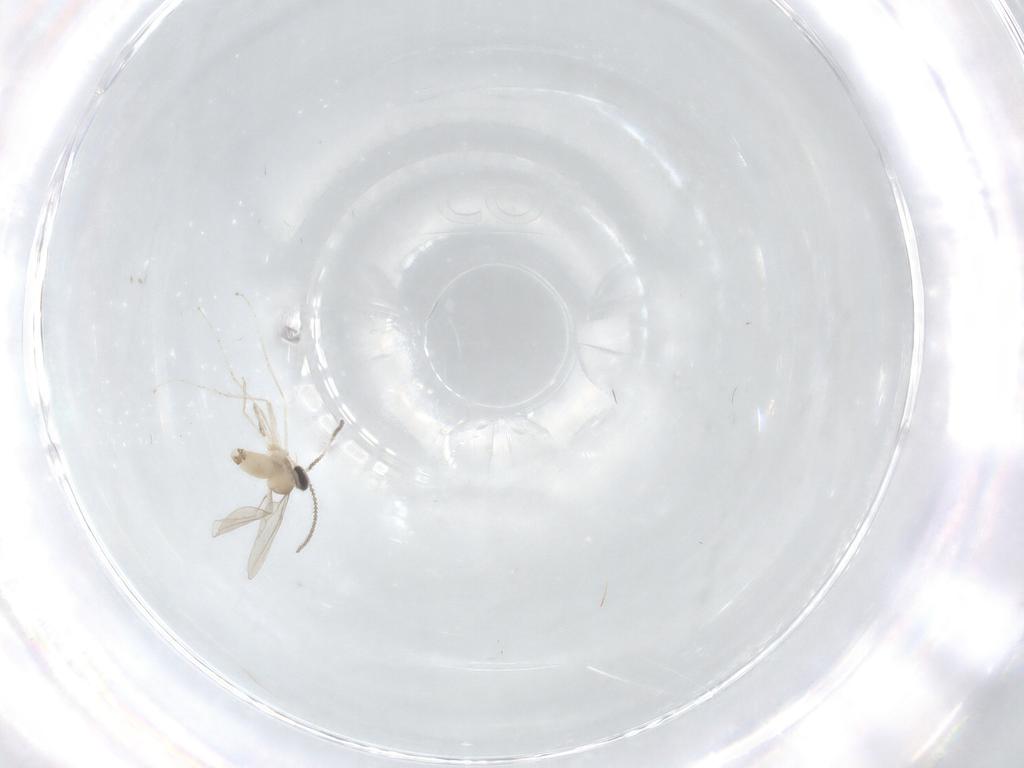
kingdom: Animalia
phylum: Arthropoda
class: Insecta
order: Diptera
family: Cecidomyiidae
